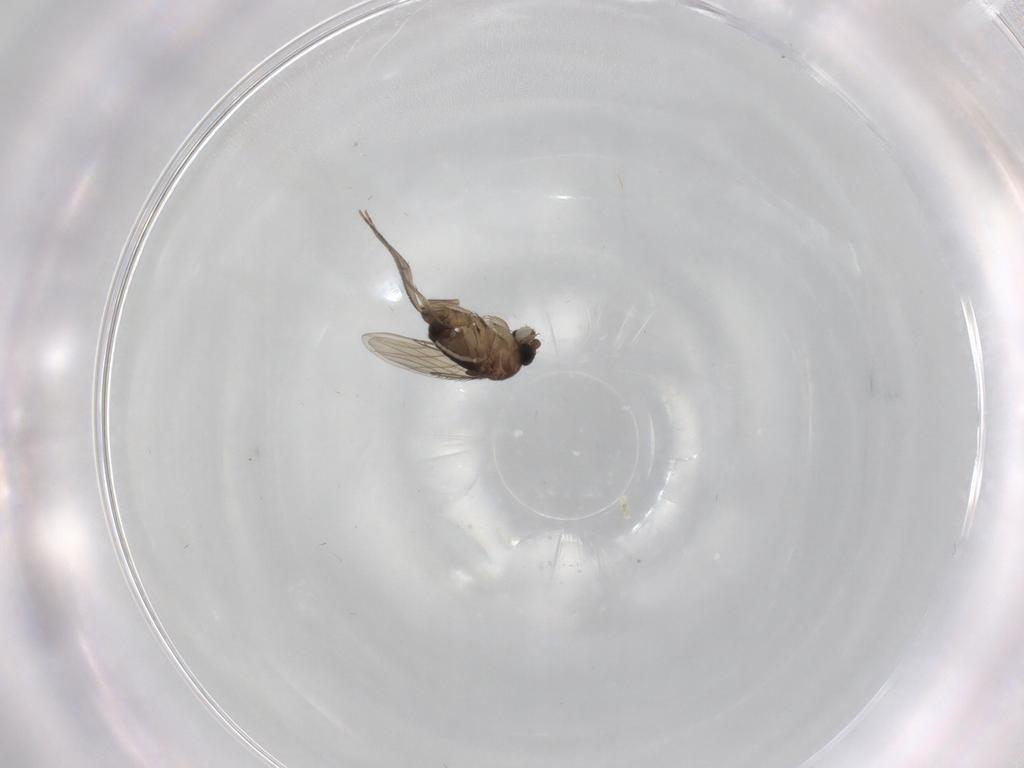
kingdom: Animalia
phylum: Arthropoda
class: Insecta
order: Diptera
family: Phoridae
